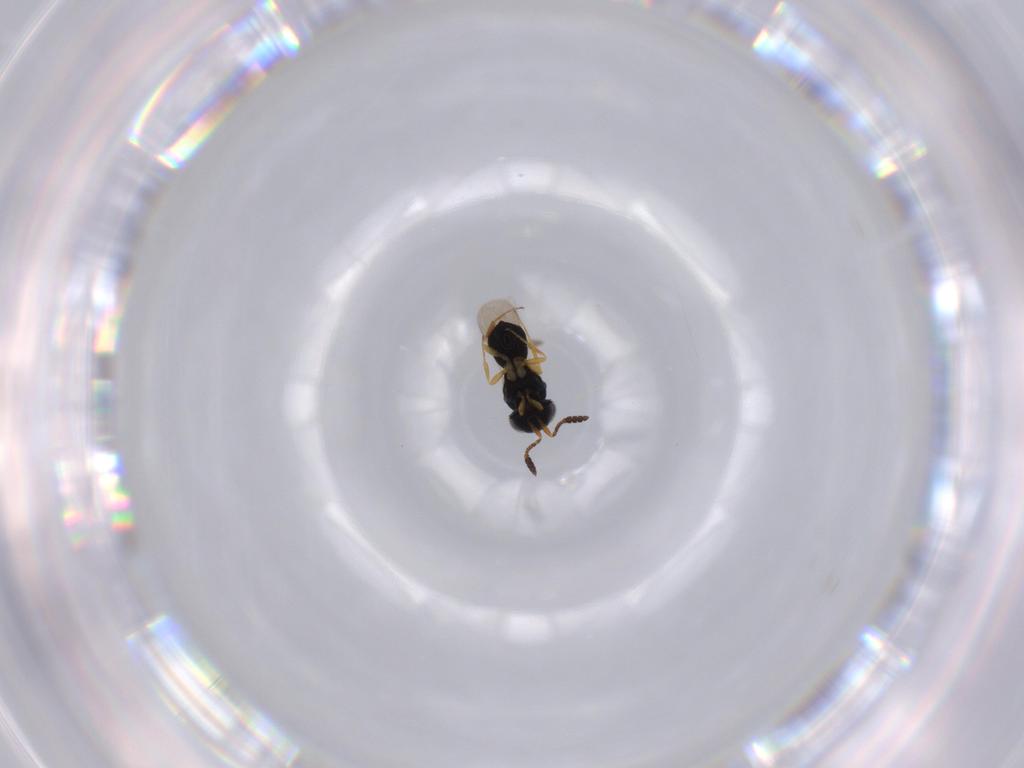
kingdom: Animalia
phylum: Arthropoda
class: Insecta
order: Hymenoptera
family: Scelionidae
